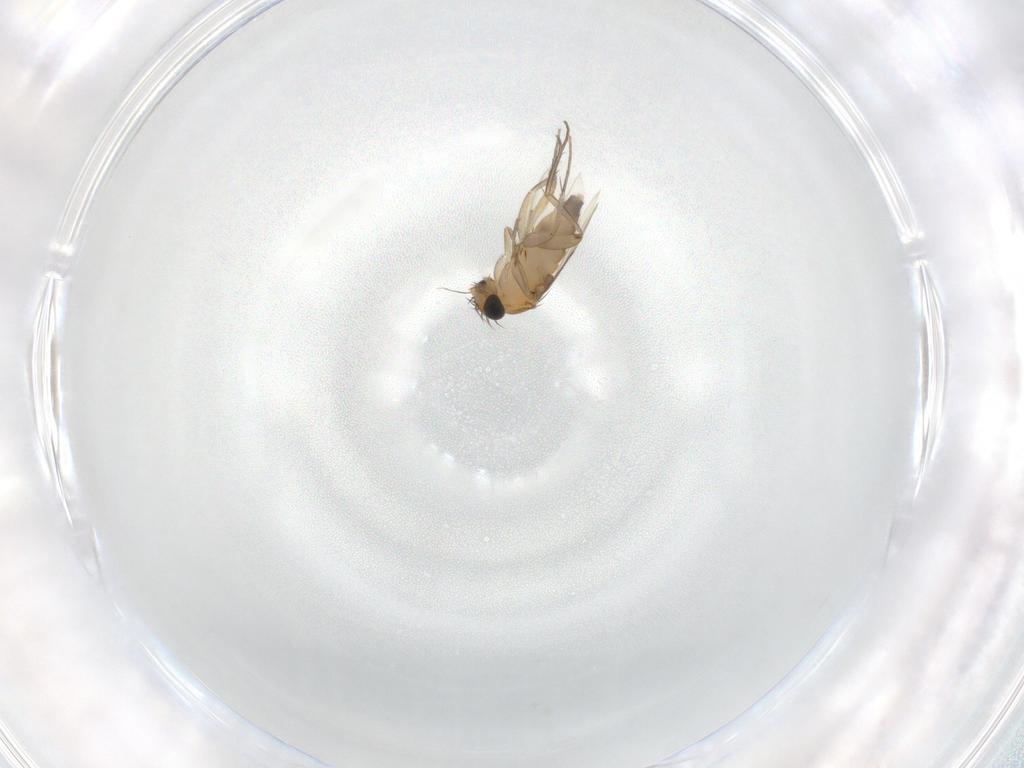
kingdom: Animalia
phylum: Arthropoda
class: Insecta
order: Diptera
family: Phoridae
